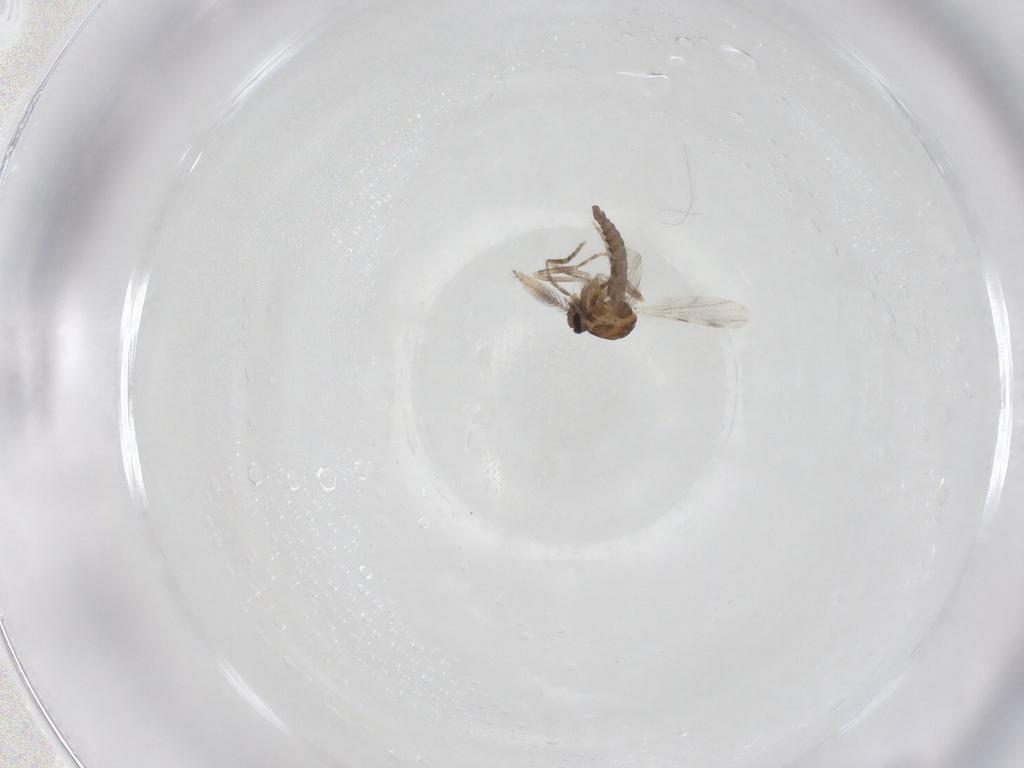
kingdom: Animalia
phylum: Arthropoda
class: Insecta
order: Diptera
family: Ceratopogonidae
